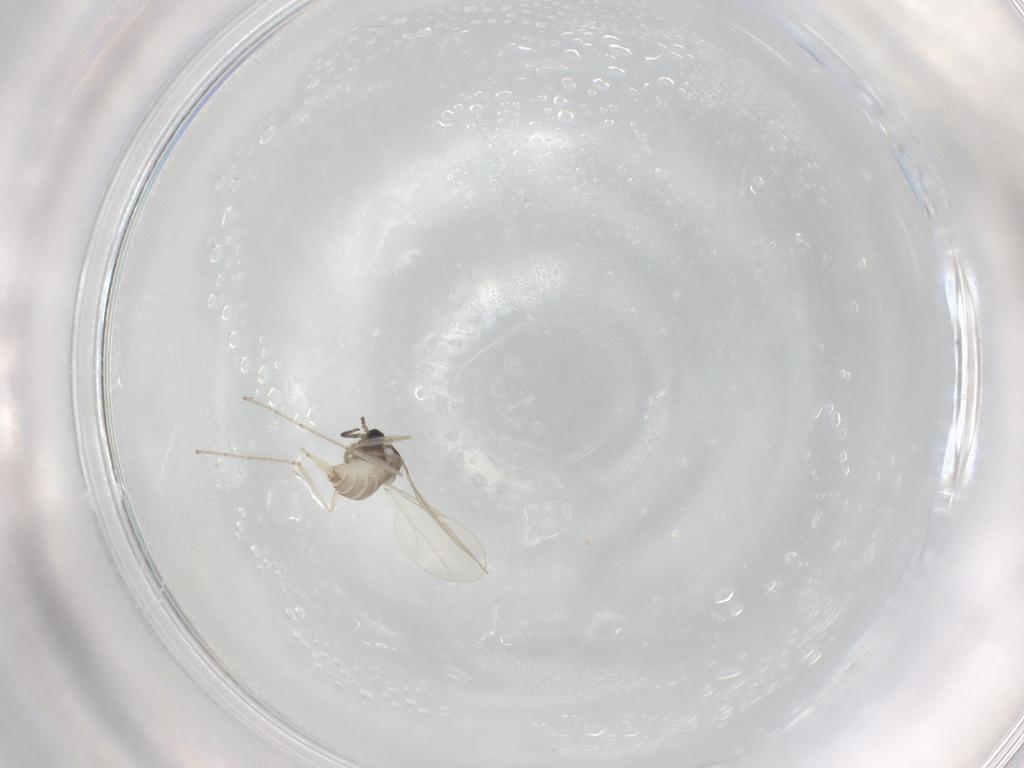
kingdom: Animalia
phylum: Arthropoda
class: Insecta
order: Diptera
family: Cecidomyiidae
